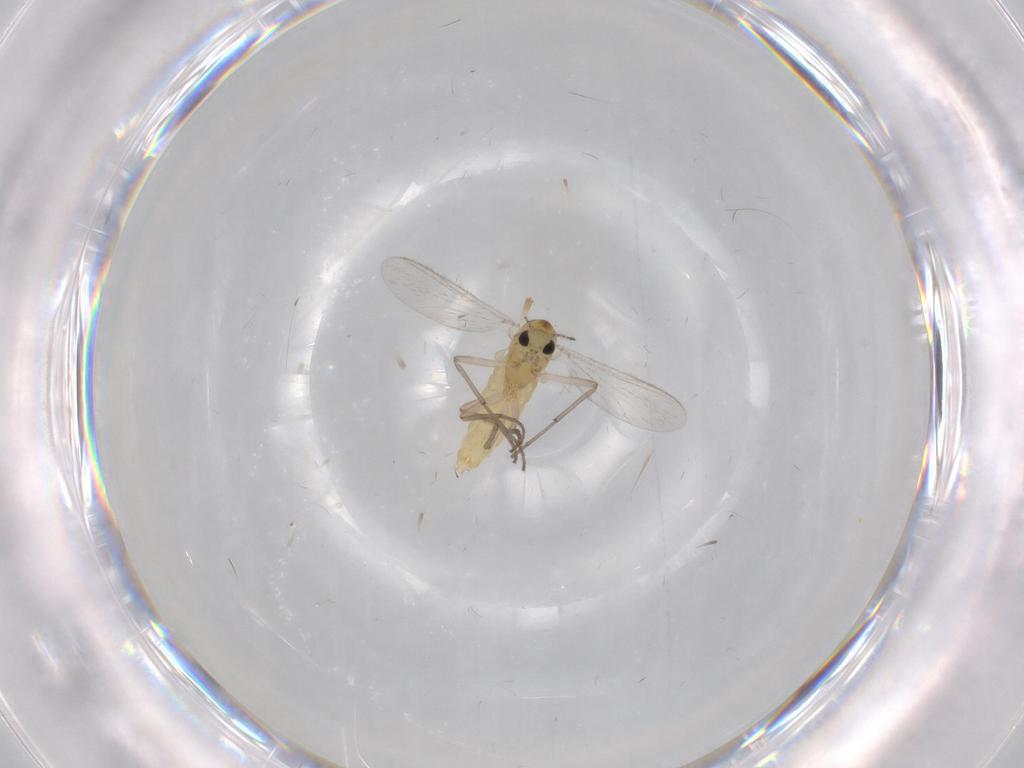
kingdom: Animalia
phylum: Arthropoda
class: Insecta
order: Diptera
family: Chironomidae
